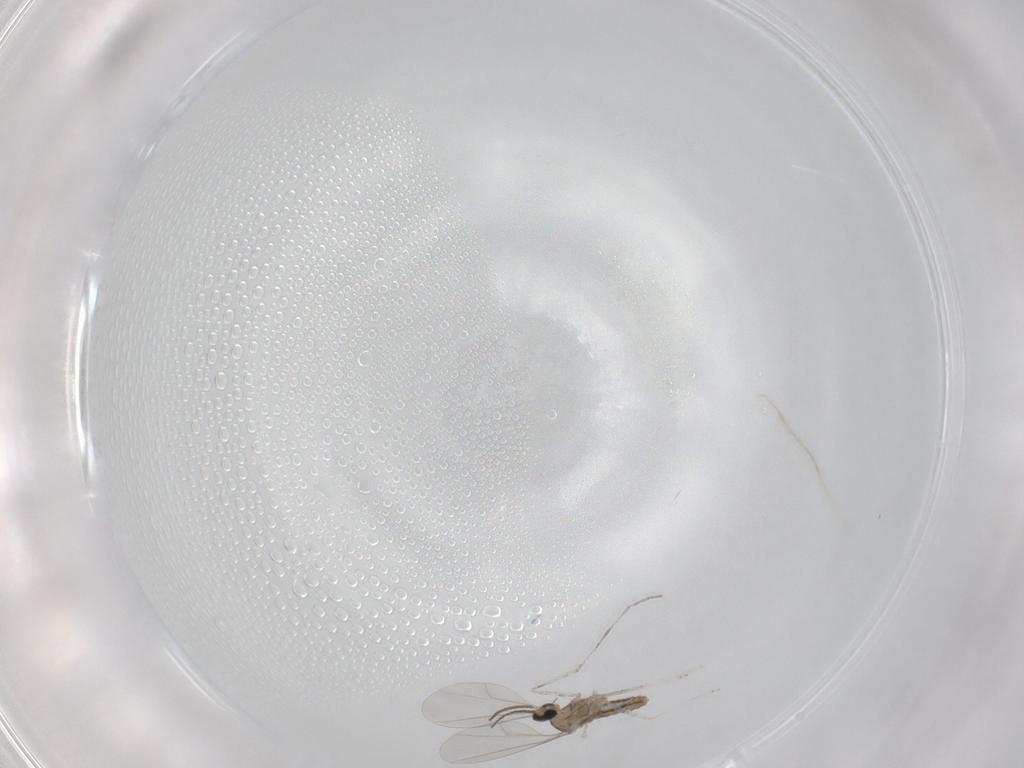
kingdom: Animalia
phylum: Arthropoda
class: Insecta
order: Diptera
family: Cecidomyiidae
